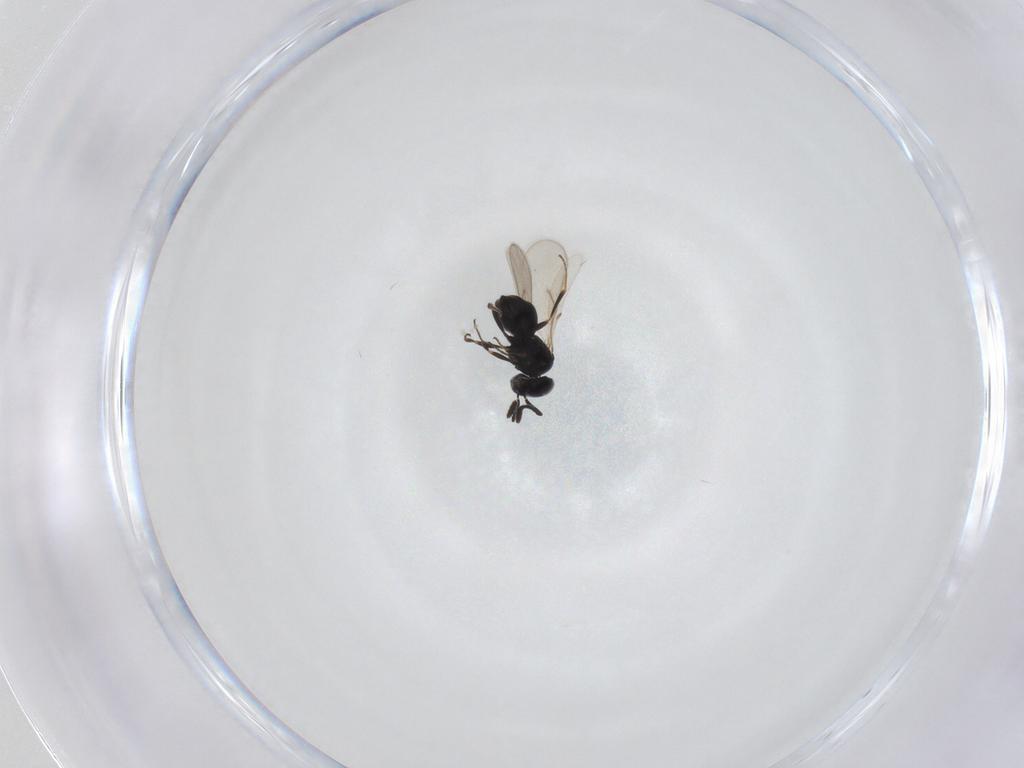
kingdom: Animalia
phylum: Arthropoda
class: Insecta
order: Hymenoptera
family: Scelionidae
